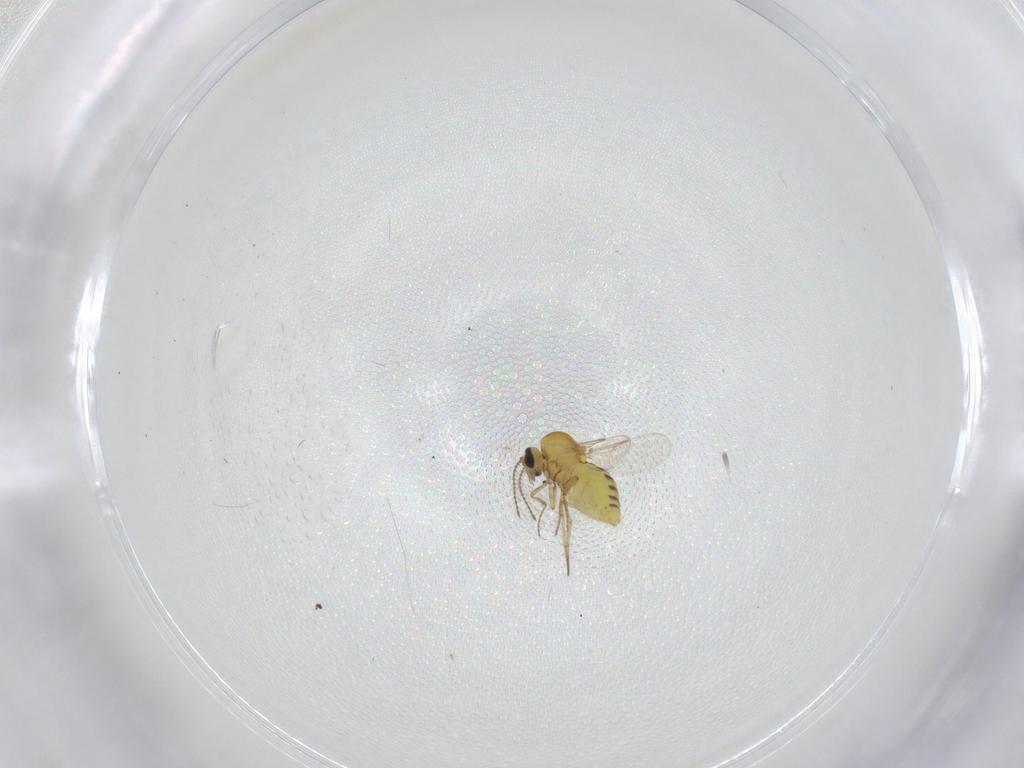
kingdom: Animalia
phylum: Arthropoda
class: Insecta
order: Diptera
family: Limoniidae
